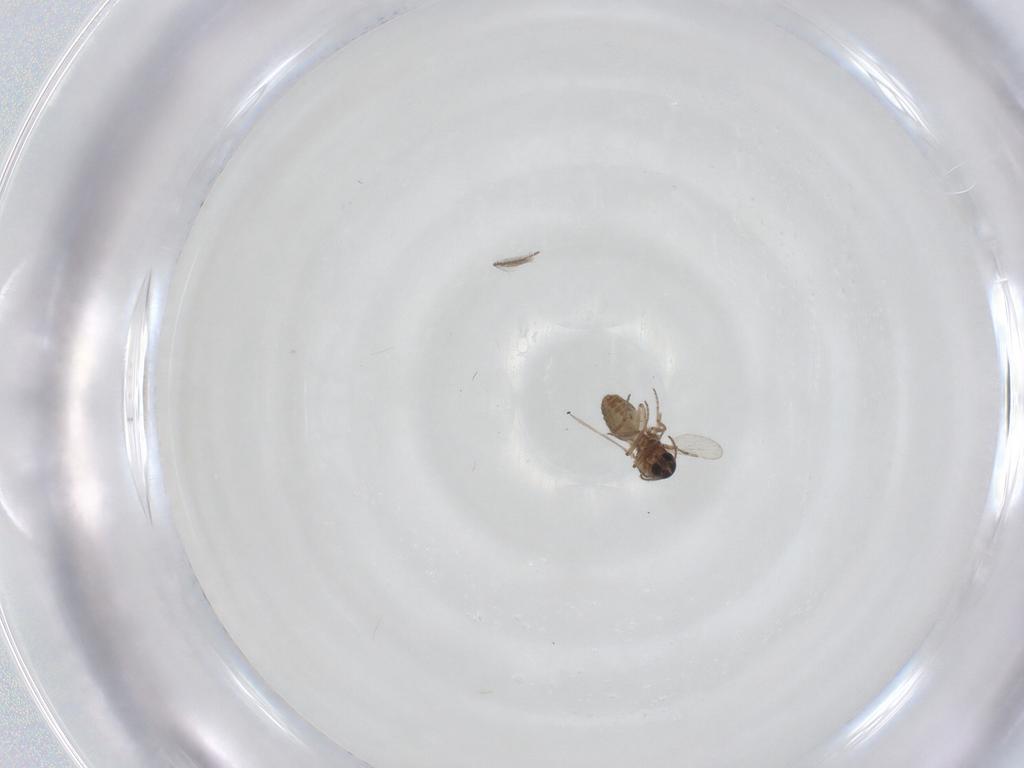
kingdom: Animalia
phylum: Arthropoda
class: Insecta
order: Diptera
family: Ceratopogonidae
